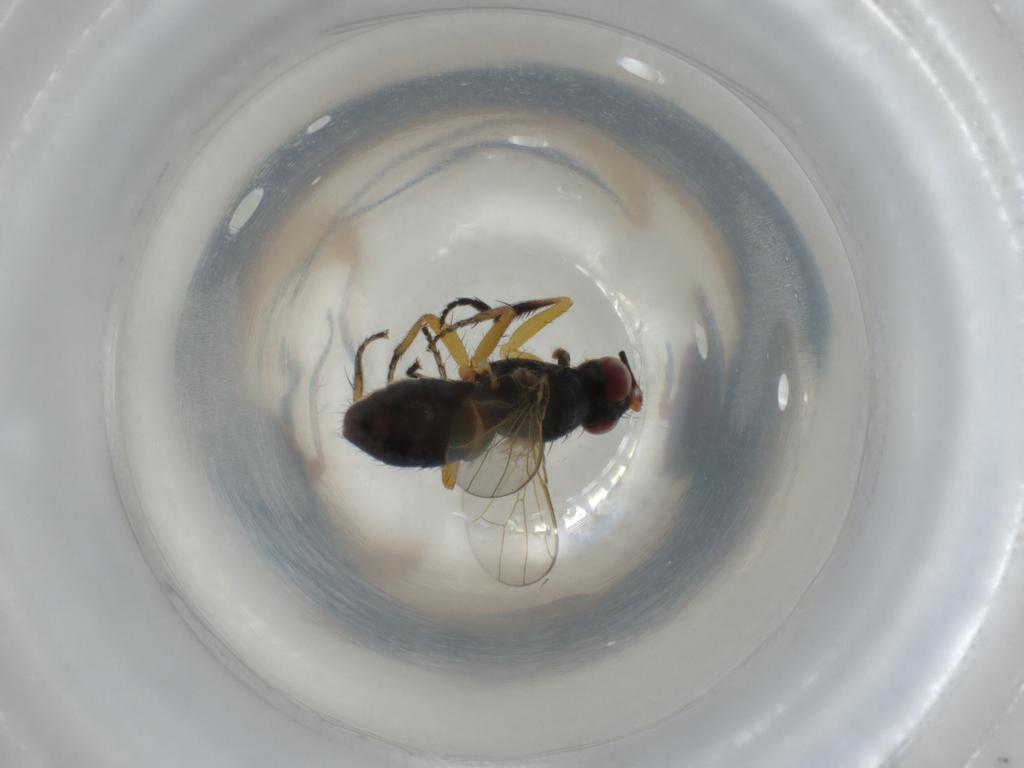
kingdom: Animalia
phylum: Arthropoda
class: Insecta
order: Diptera
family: Muscidae
